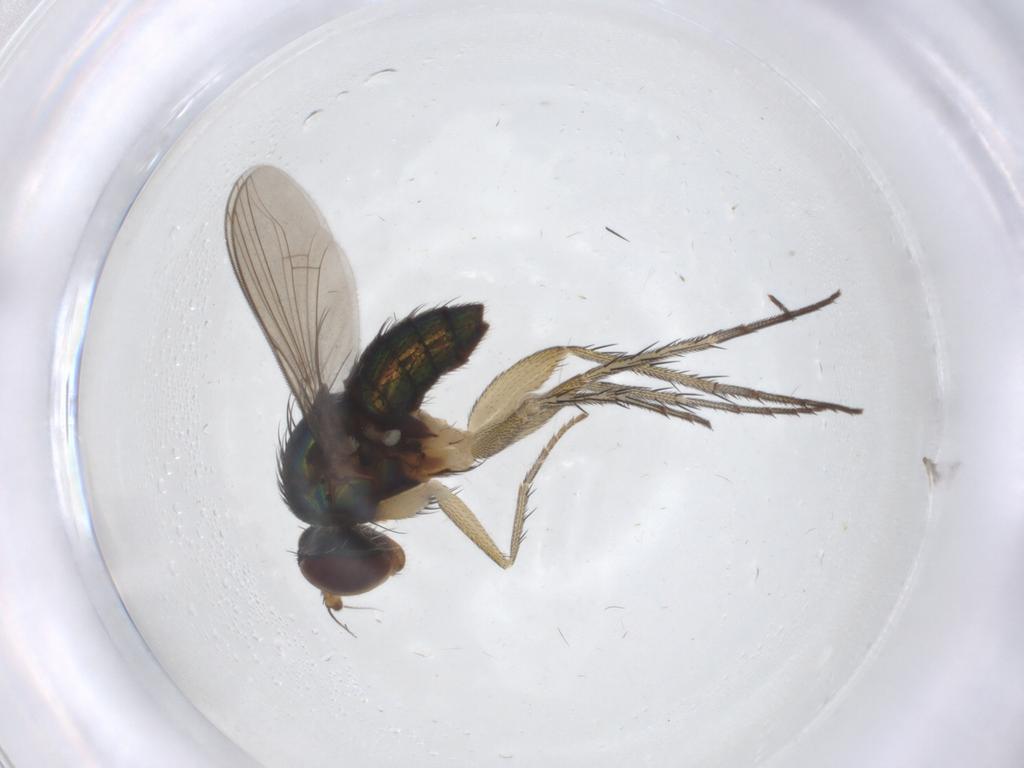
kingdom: Animalia
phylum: Arthropoda
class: Insecta
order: Diptera
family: Dolichopodidae
